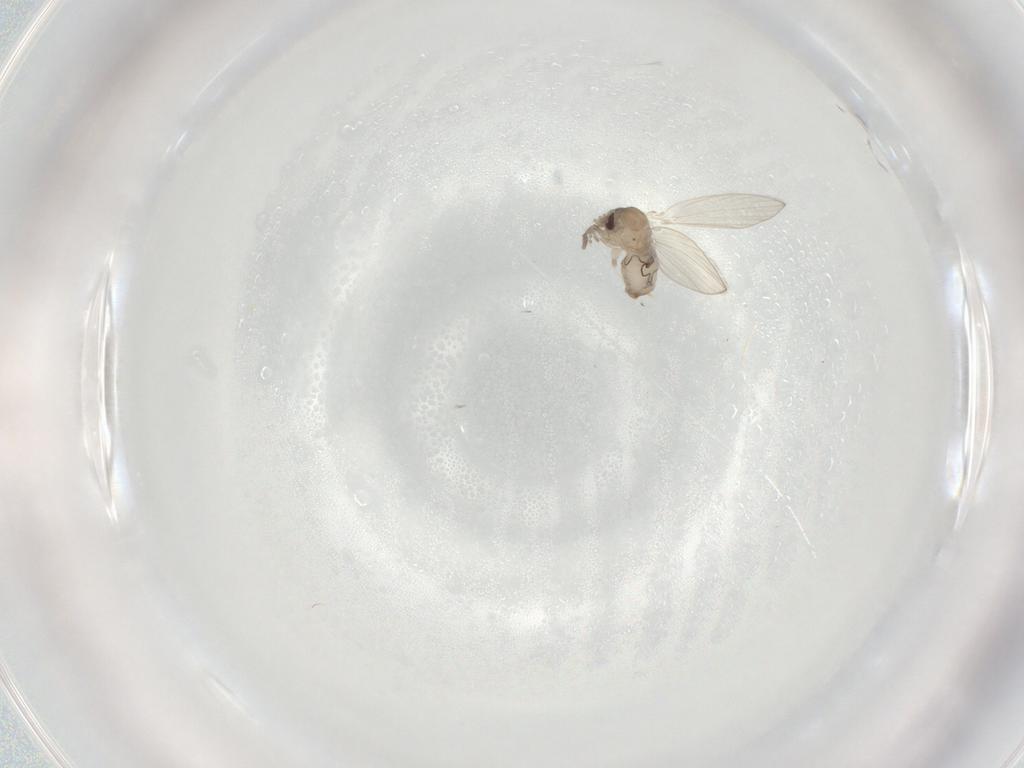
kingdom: Animalia
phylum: Arthropoda
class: Insecta
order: Diptera
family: Psychodidae
